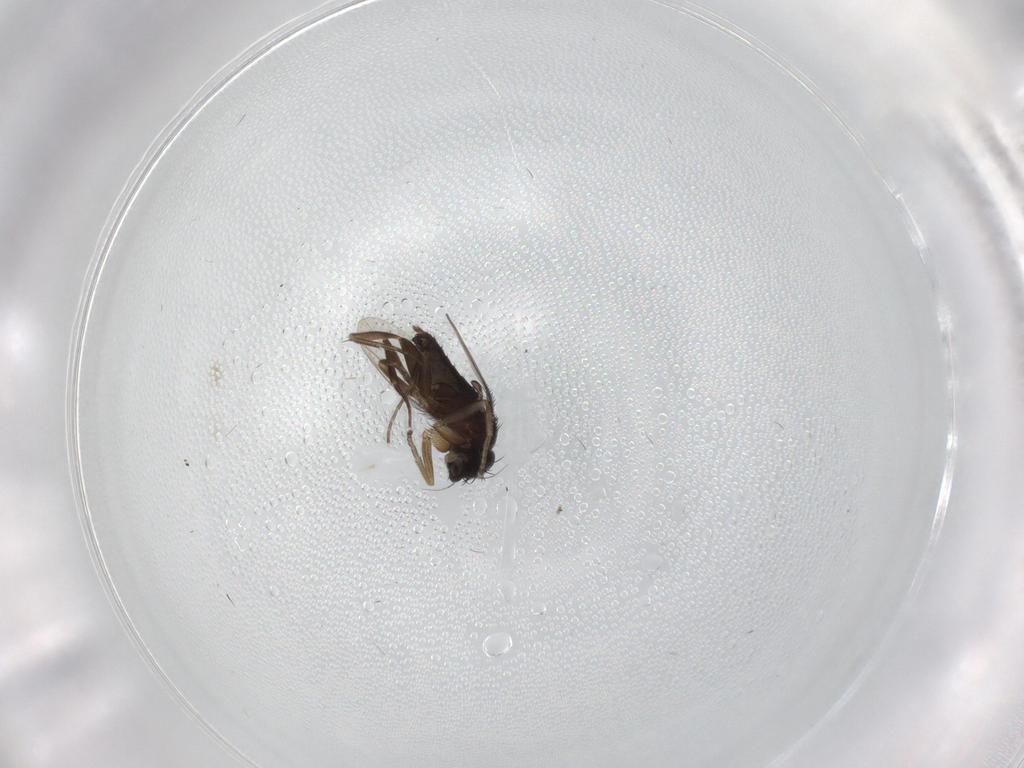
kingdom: Animalia
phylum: Arthropoda
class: Insecta
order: Diptera
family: Phoridae
